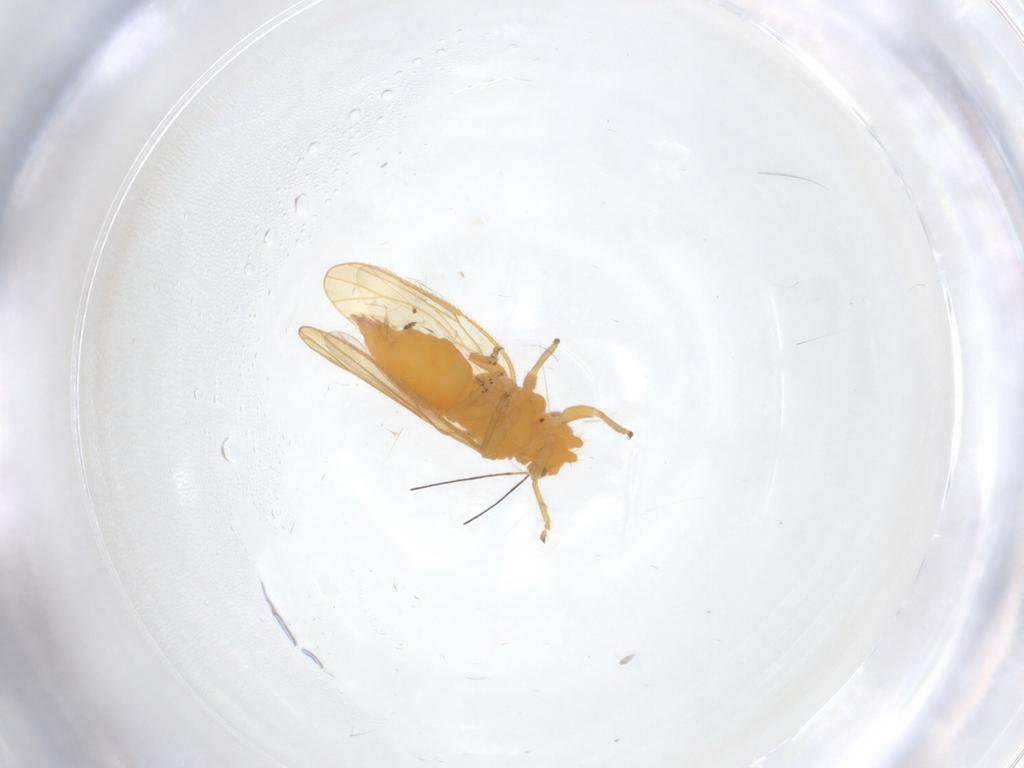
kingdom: Animalia
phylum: Arthropoda
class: Insecta
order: Hemiptera
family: Psyllidae
